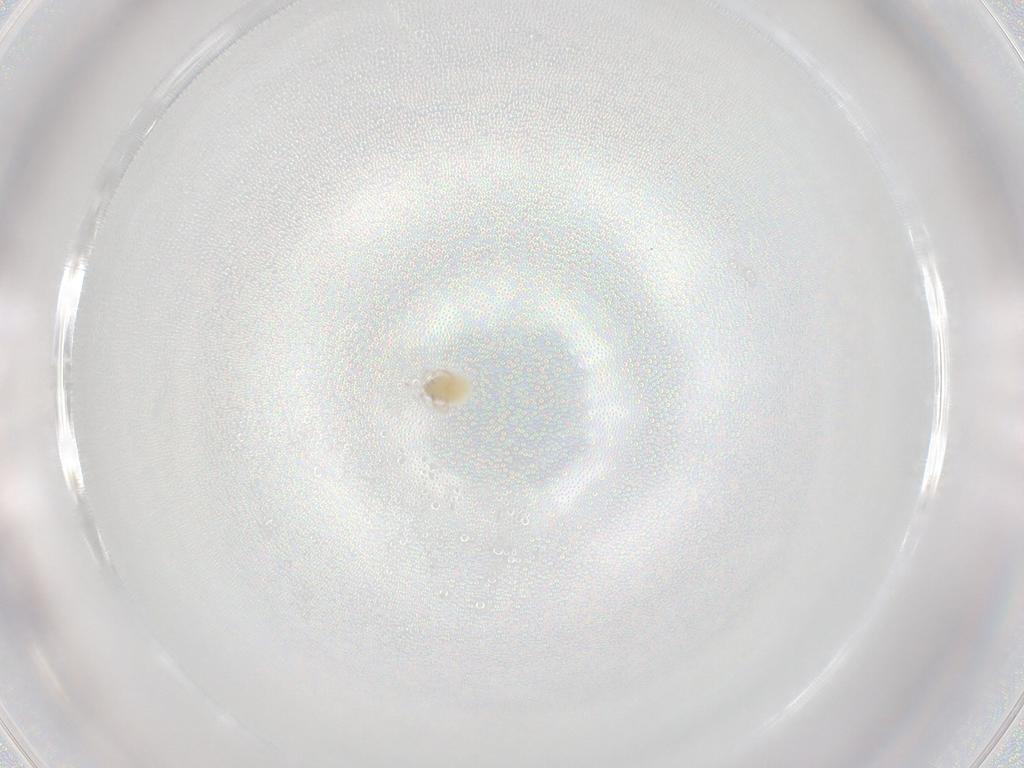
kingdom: Animalia
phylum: Arthropoda
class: Arachnida
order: Trombidiformes
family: Lebertiidae
